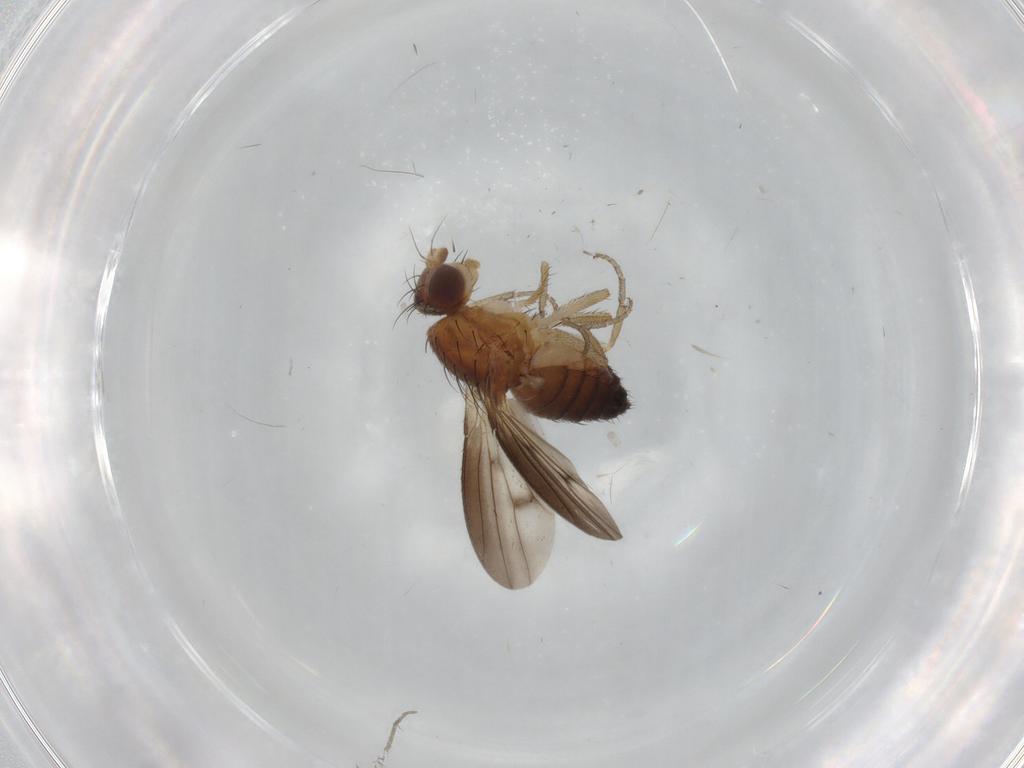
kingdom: Animalia
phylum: Arthropoda
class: Insecta
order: Diptera
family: Heleomyzidae
